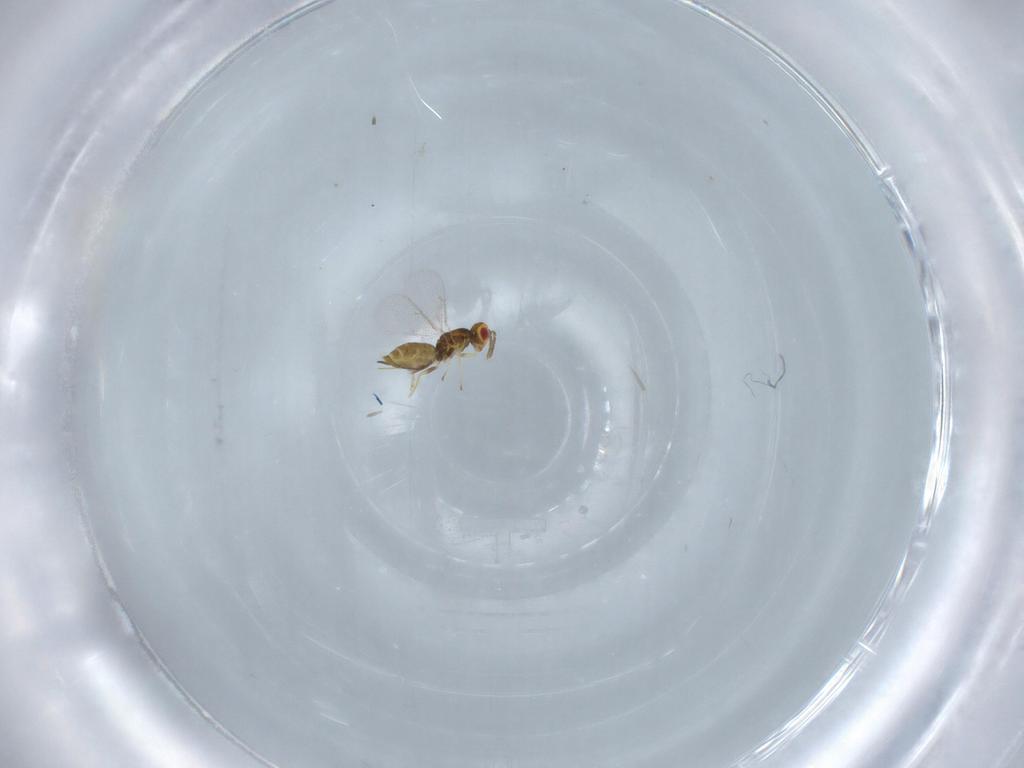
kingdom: Animalia
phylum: Arthropoda
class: Insecta
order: Hymenoptera
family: Eulophidae
